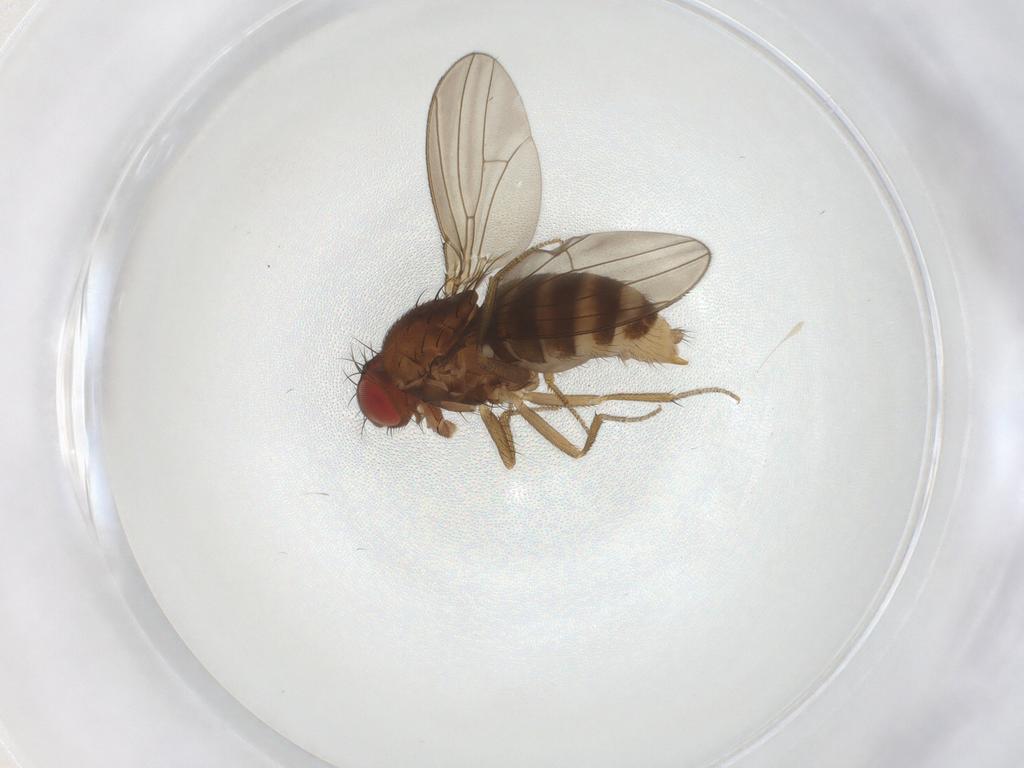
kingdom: Animalia
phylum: Arthropoda
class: Insecta
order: Diptera
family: Drosophilidae
